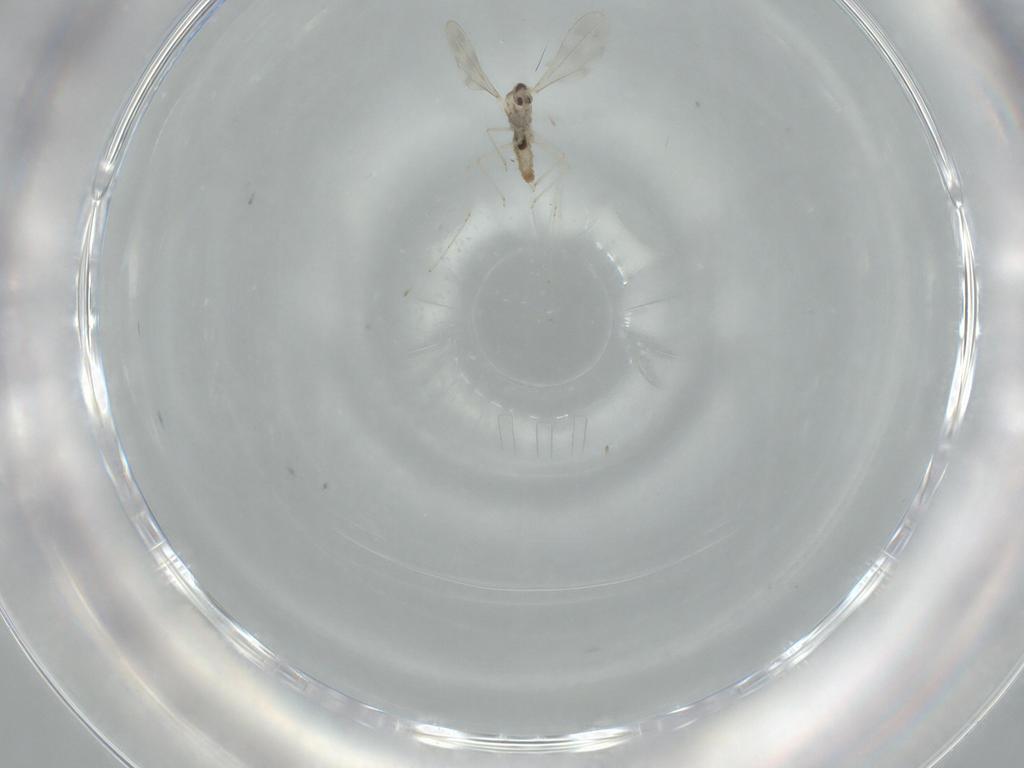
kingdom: Animalia
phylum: Arthropoda
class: Insecta
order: Diptera
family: Cecidomyiidae
